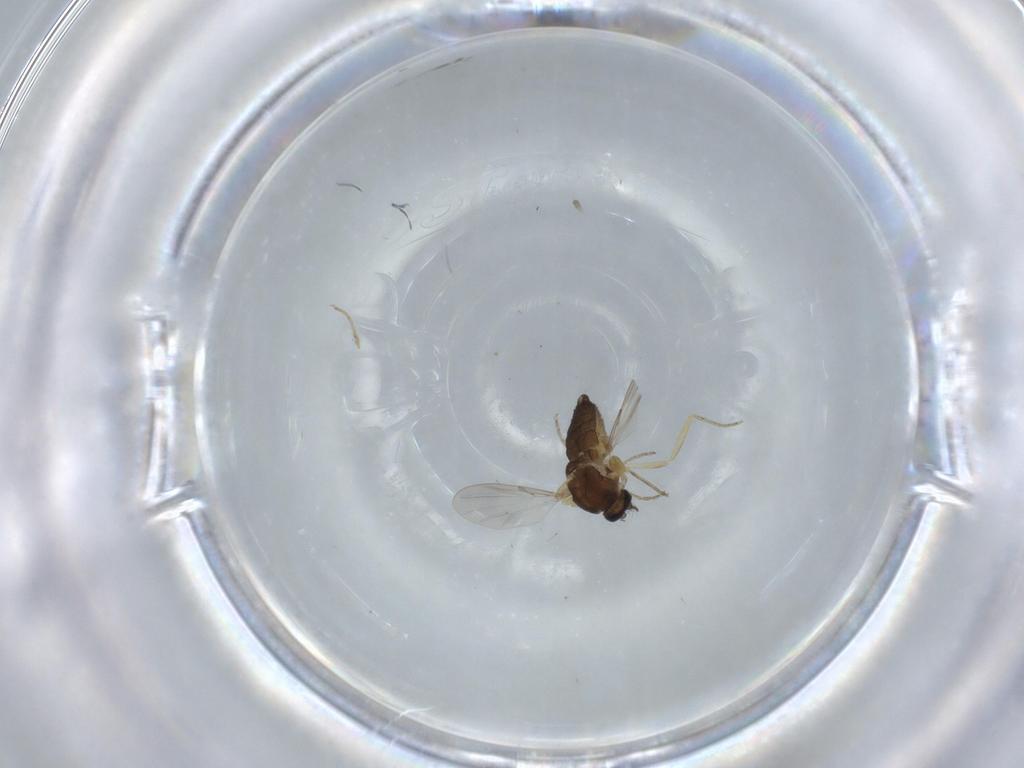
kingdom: Animalia
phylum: Arthropoda
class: Insecta
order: Diptera
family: Ceratopogonidae
